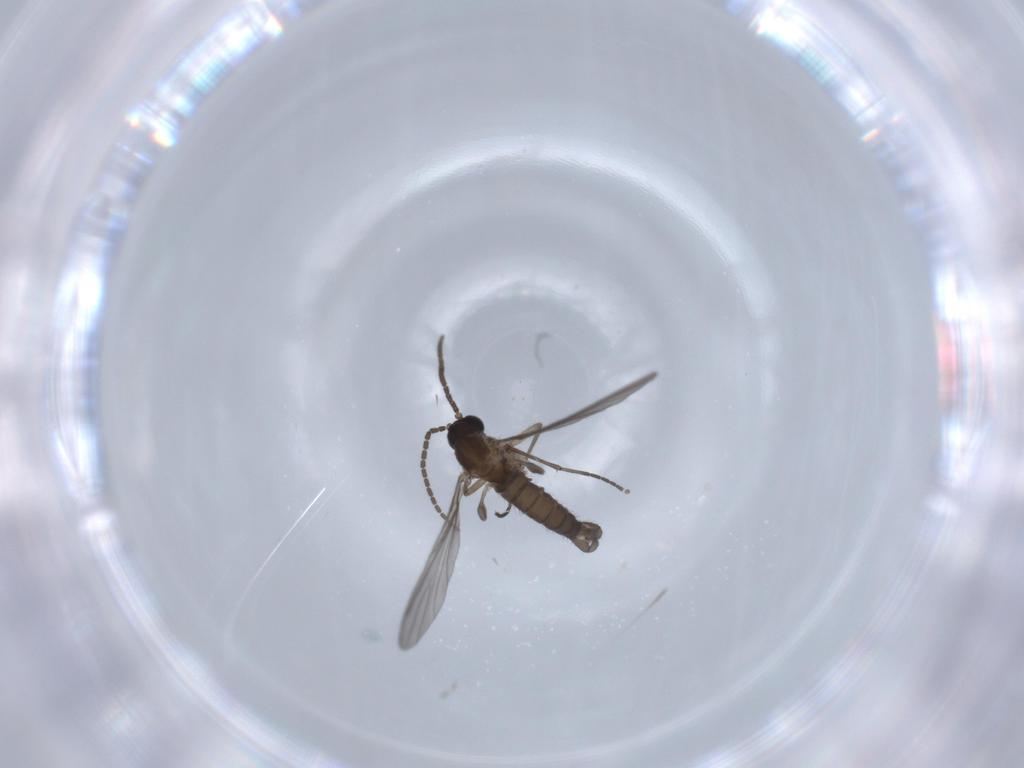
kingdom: Animalia
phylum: Arthropoda
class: Insecta
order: Diptera
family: Sciaridae
